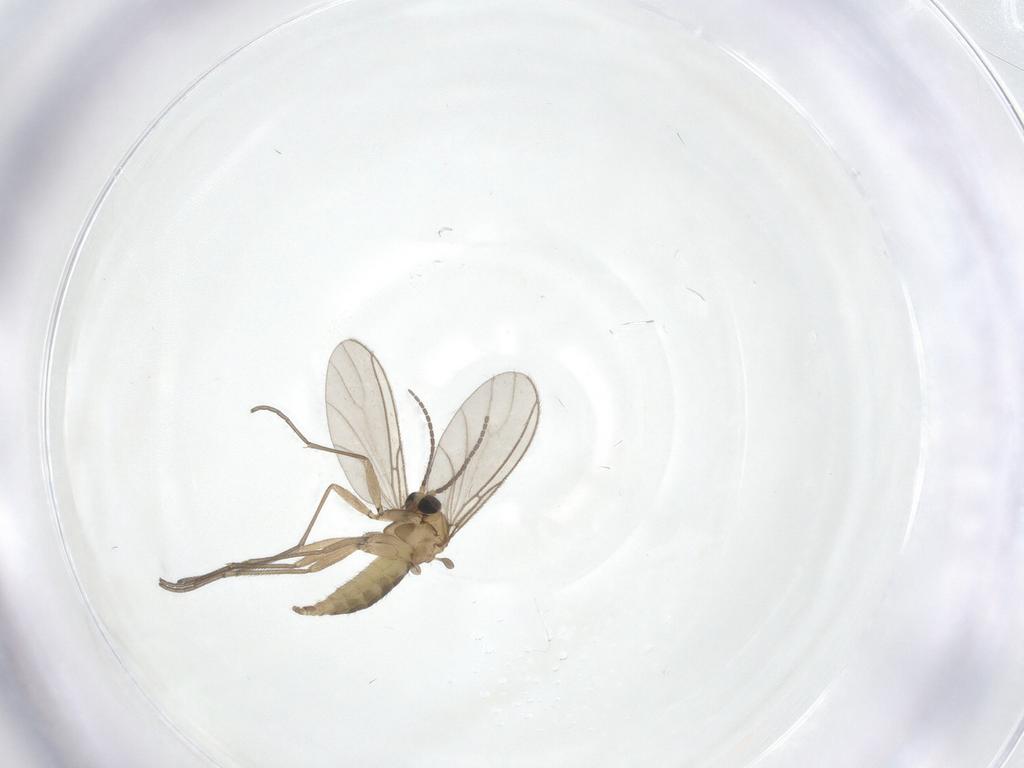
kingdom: Animalia
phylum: Arthropoda
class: Insecta
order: Diptera
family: Sciaridae
